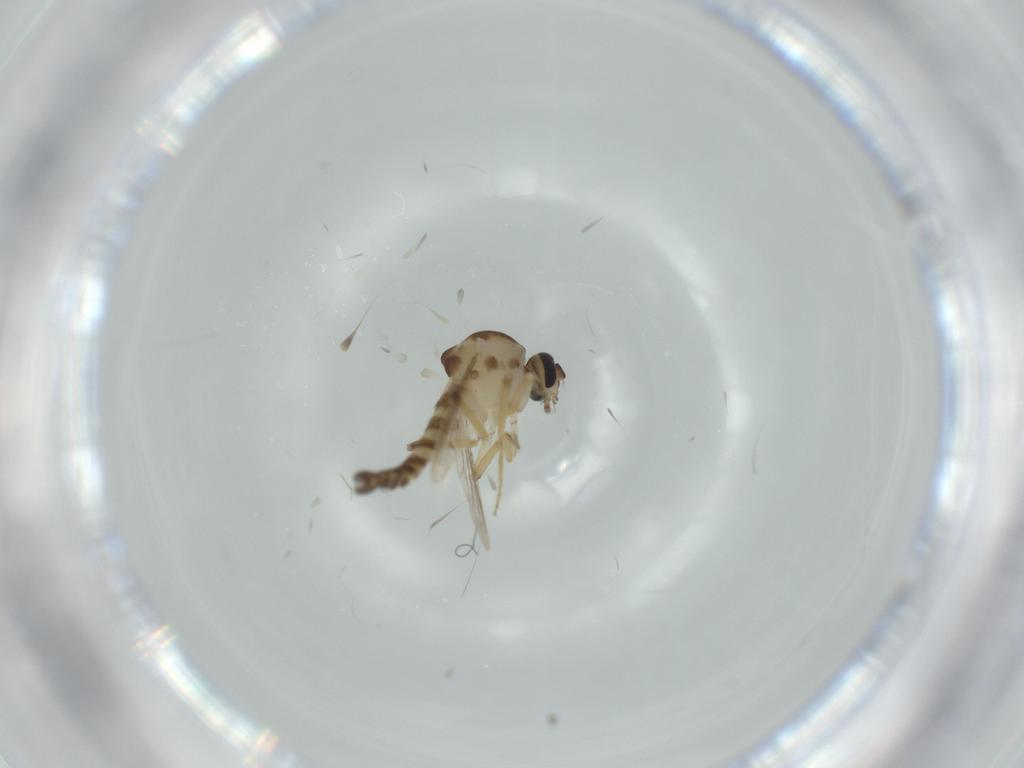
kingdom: Animalia
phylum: Arthropoda
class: Insecta
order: Diptera
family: Ceratopogonidae
